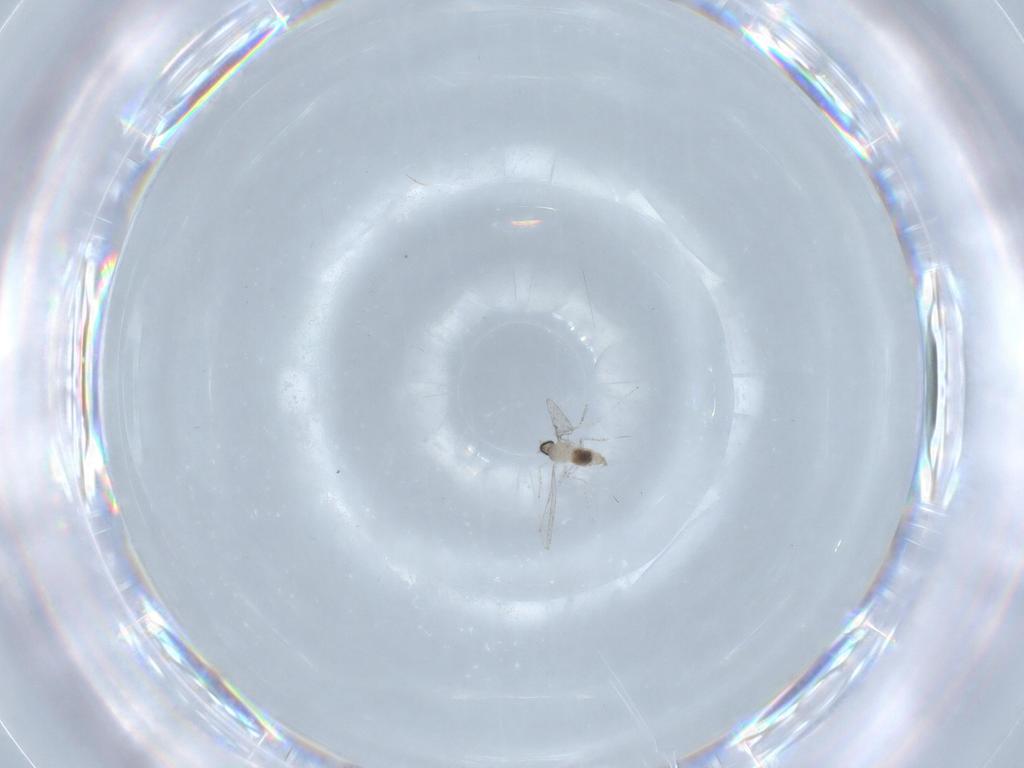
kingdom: Animalia
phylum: Arthropoda
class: Insecta
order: Diptera
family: Cecidomyiidae
